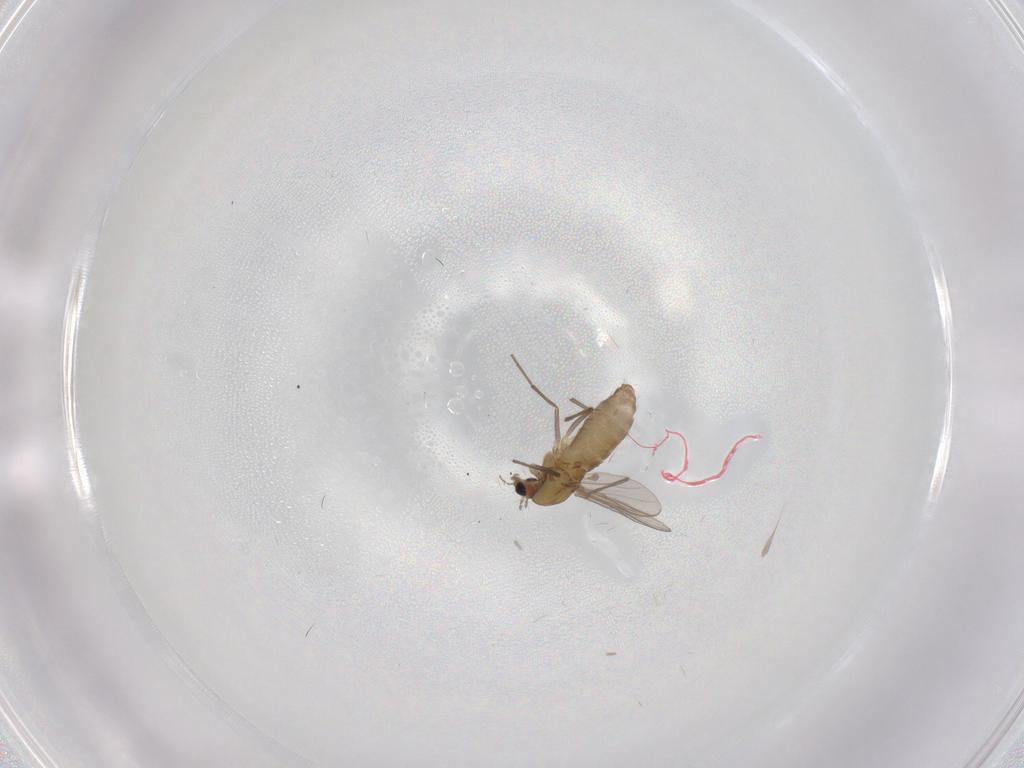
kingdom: Animalia
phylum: Arthropoda
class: Insecta
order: Diptera
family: Chironomidae
